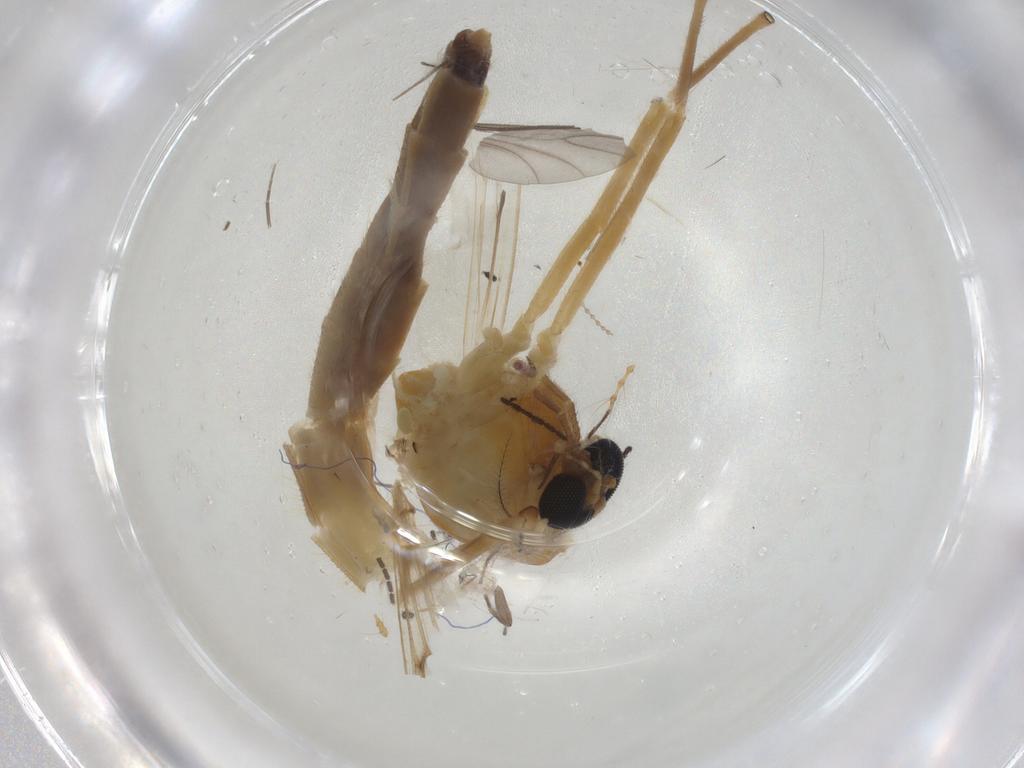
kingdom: Animalia
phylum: Arthropoda
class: Insecta
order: Diptera
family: Chironomidae
